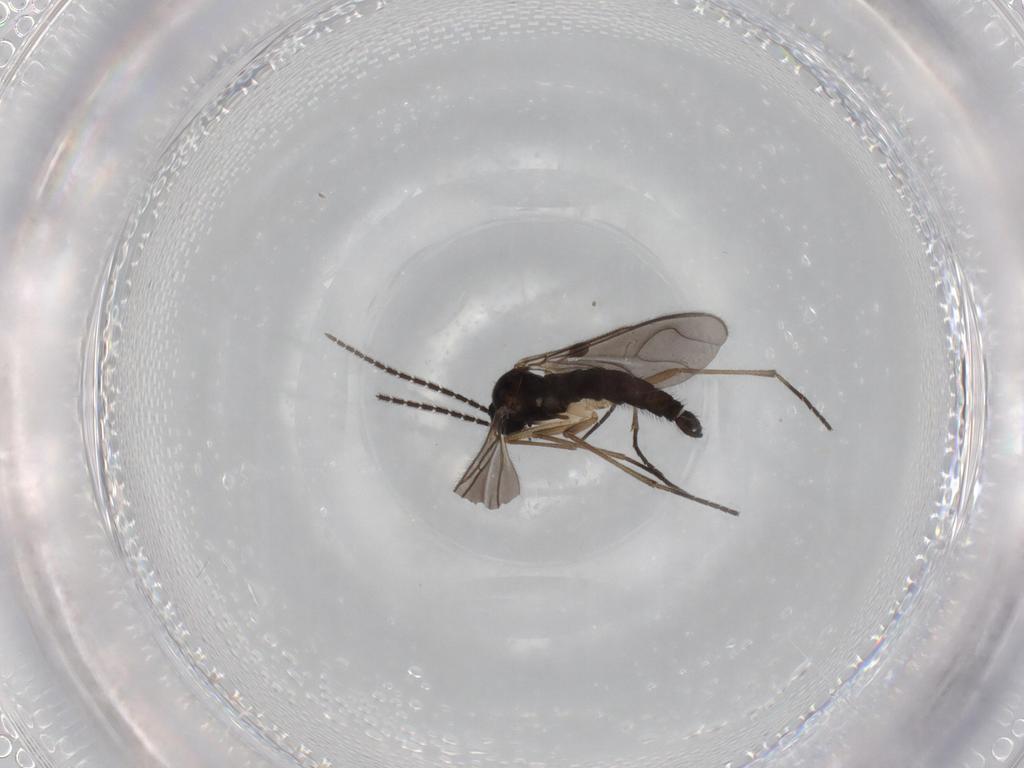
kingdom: Animalia
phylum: Arthropoda
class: Insecta
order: Diptera
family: Sciaridae
